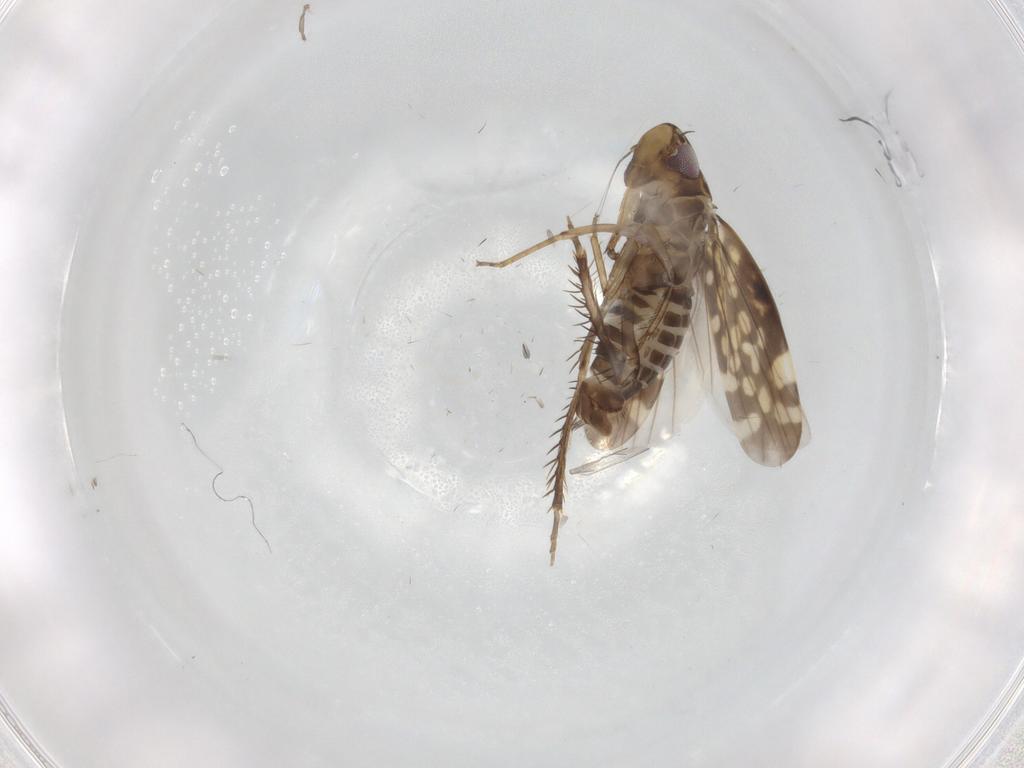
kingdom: Animalia
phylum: Arthropoda
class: Insecta
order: Hemiptera
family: Cicadellidae
